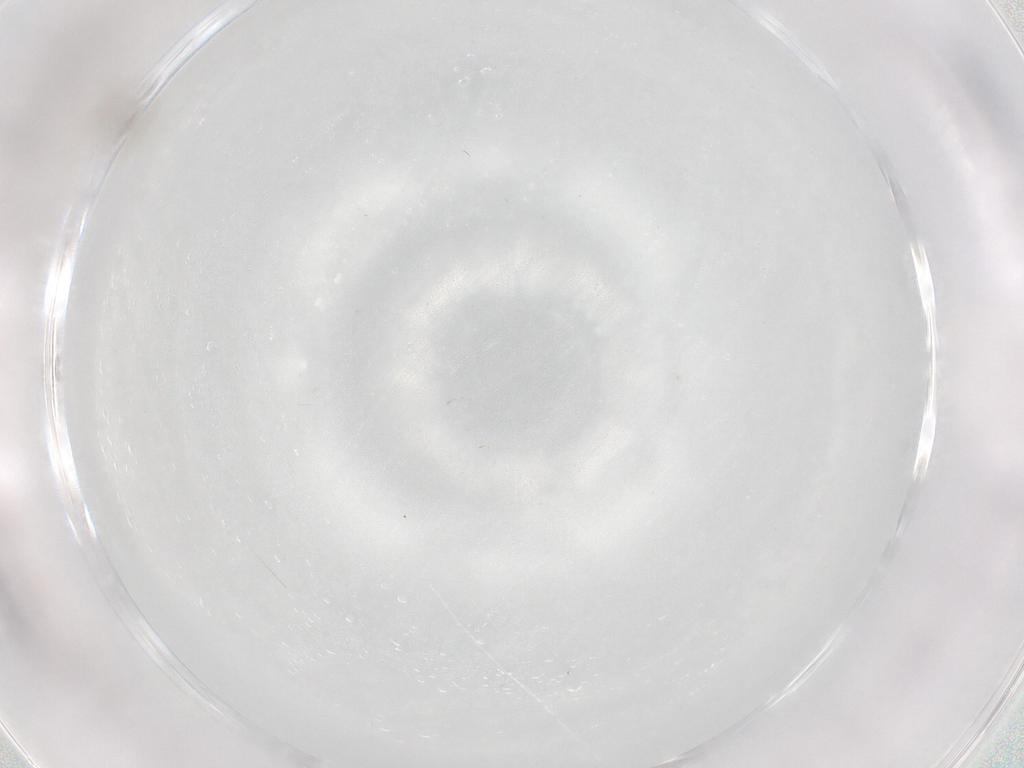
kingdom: Animalia
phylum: Arthropoda
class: Insecta
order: Diptera
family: Cecidomyiidae
